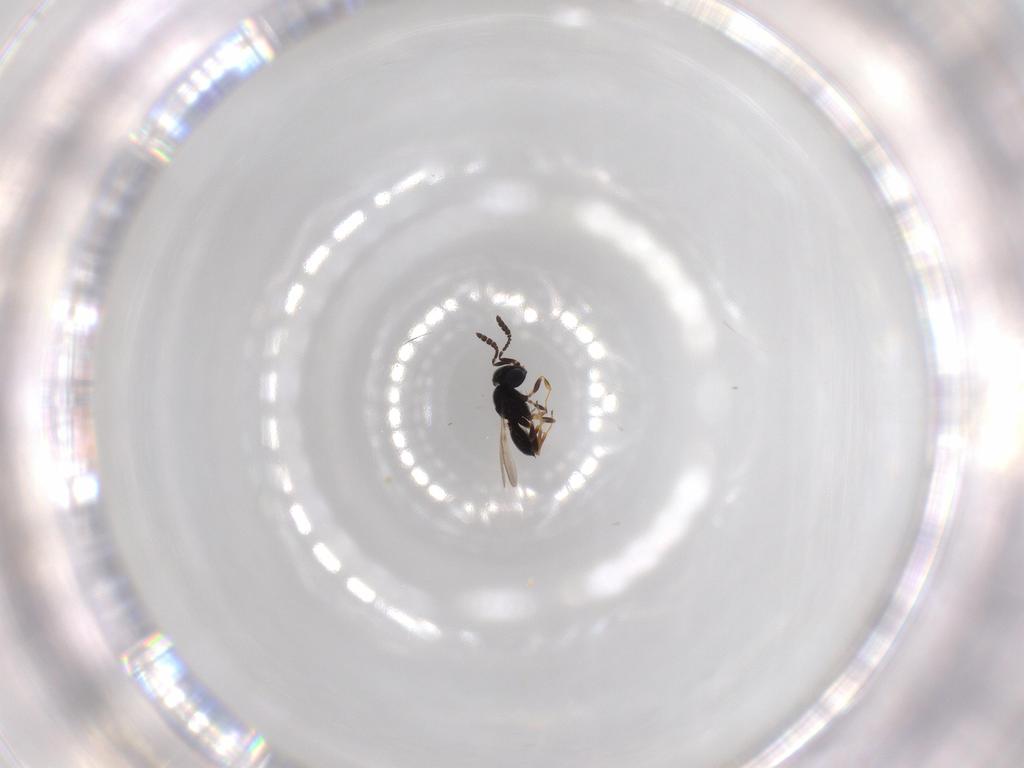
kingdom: Animalia
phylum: Arthropoda
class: Insecta
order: Hymenoptera
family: Scelionidae
